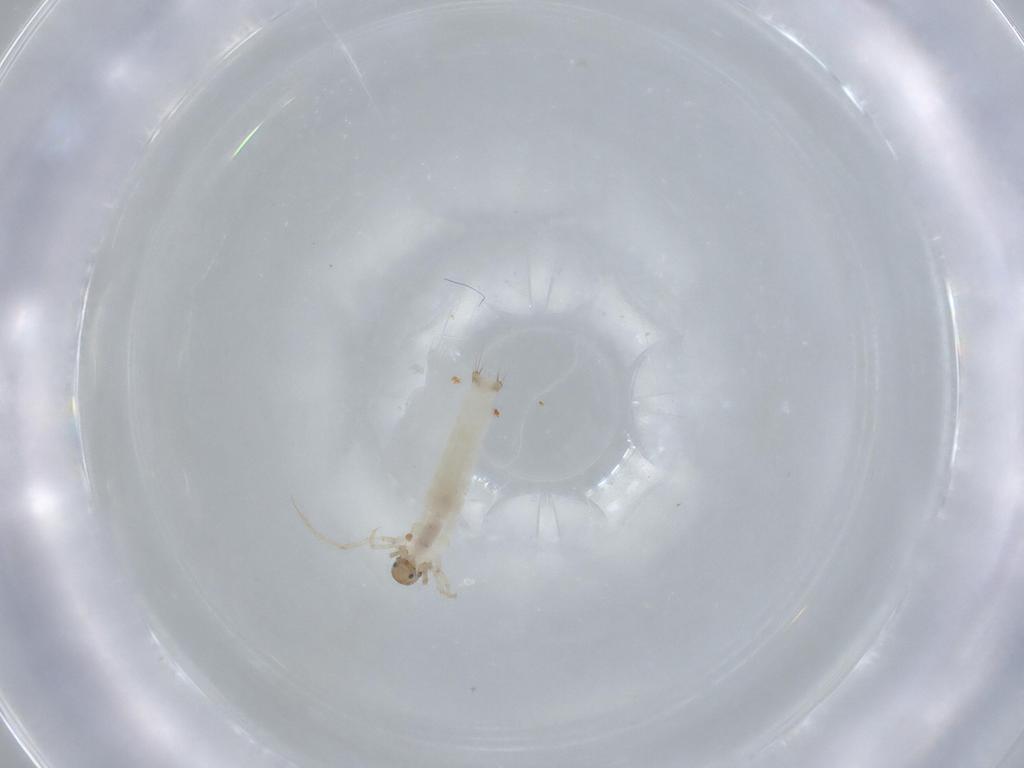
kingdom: Animalia
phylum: Arthropoda
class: Insecta
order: Trichoptera
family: Leptoceridae
